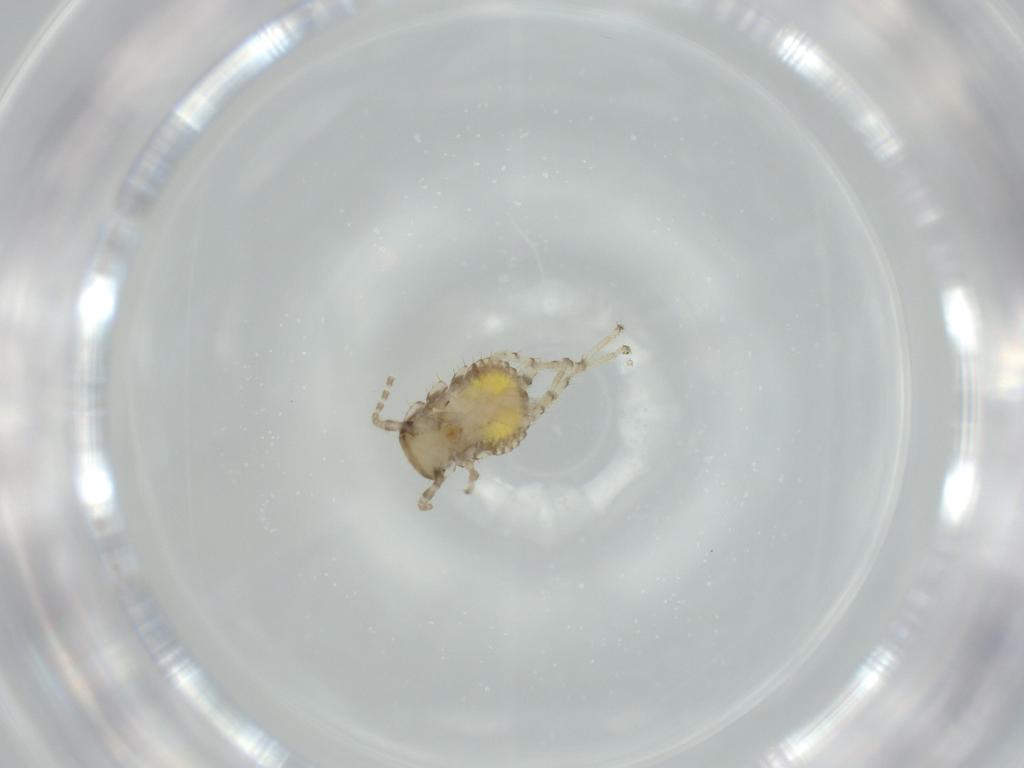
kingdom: Animalia
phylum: Arthropoda
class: Insecta
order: Blattodea
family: Ectobiidae
